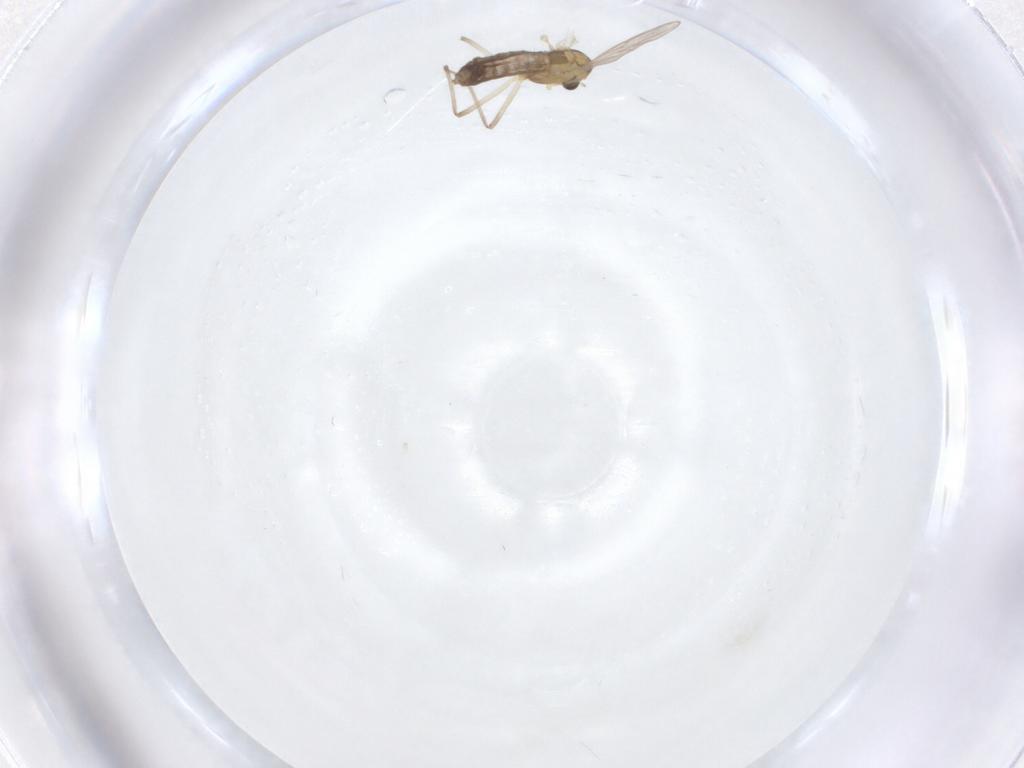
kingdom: Animalia
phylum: Arthropoda
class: Insecta
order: Diptera
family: Chironomidae
